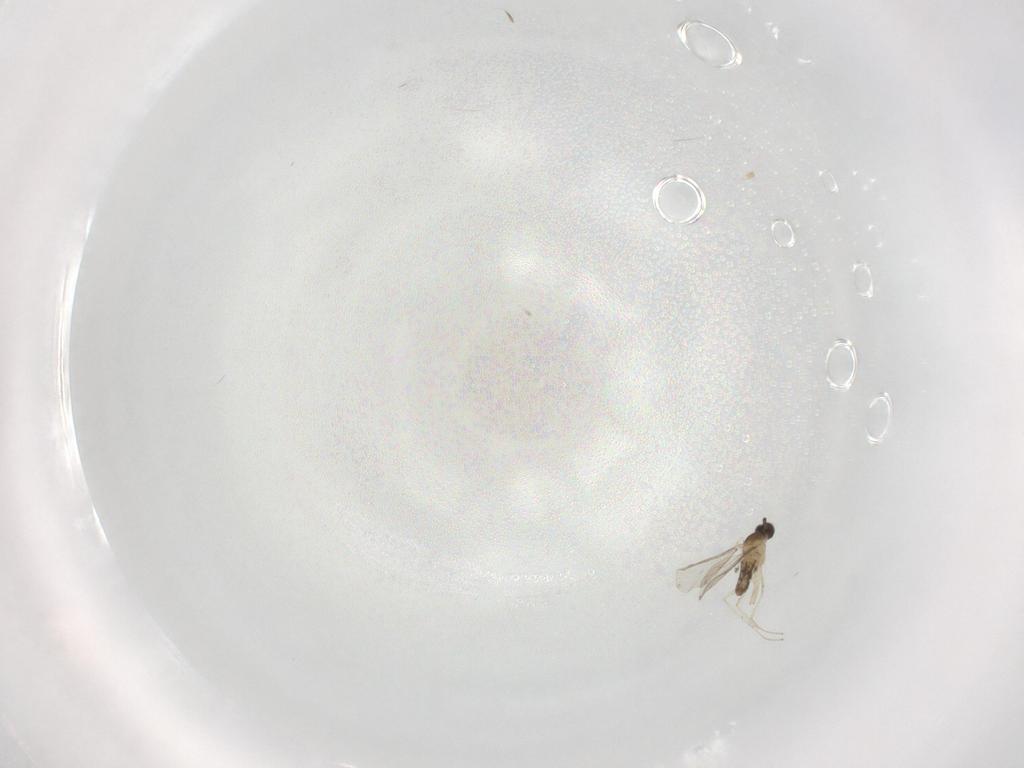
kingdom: Animalia
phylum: Arthropoda
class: Insecta
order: Diptera
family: Cecidomyiidae
